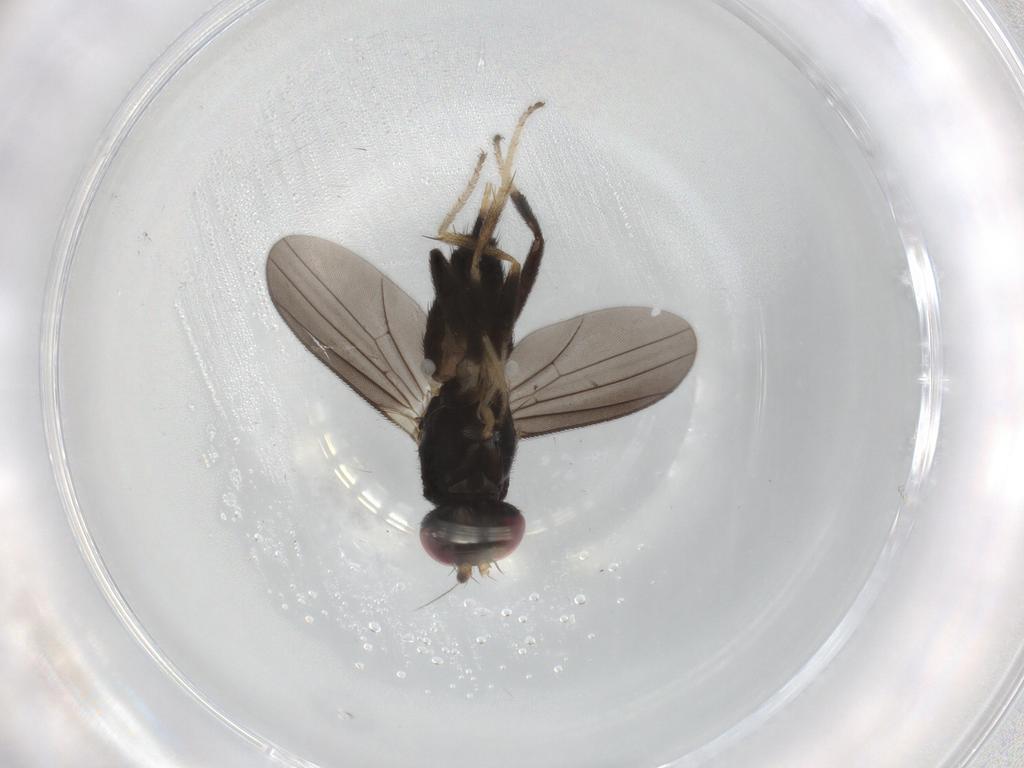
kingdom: Animalia
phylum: Arthropoda
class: Insecta
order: Diptera
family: Clusiidae
